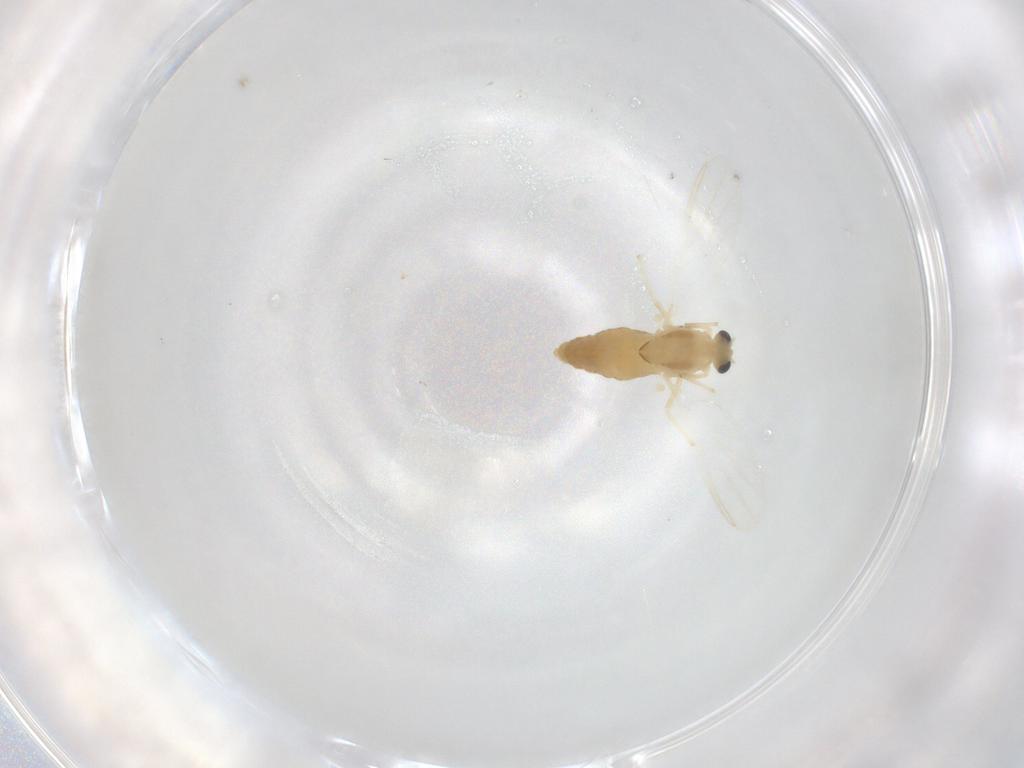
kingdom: Animalia
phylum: Arthropoda
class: Insecta
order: Diptera
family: Chironomidae
